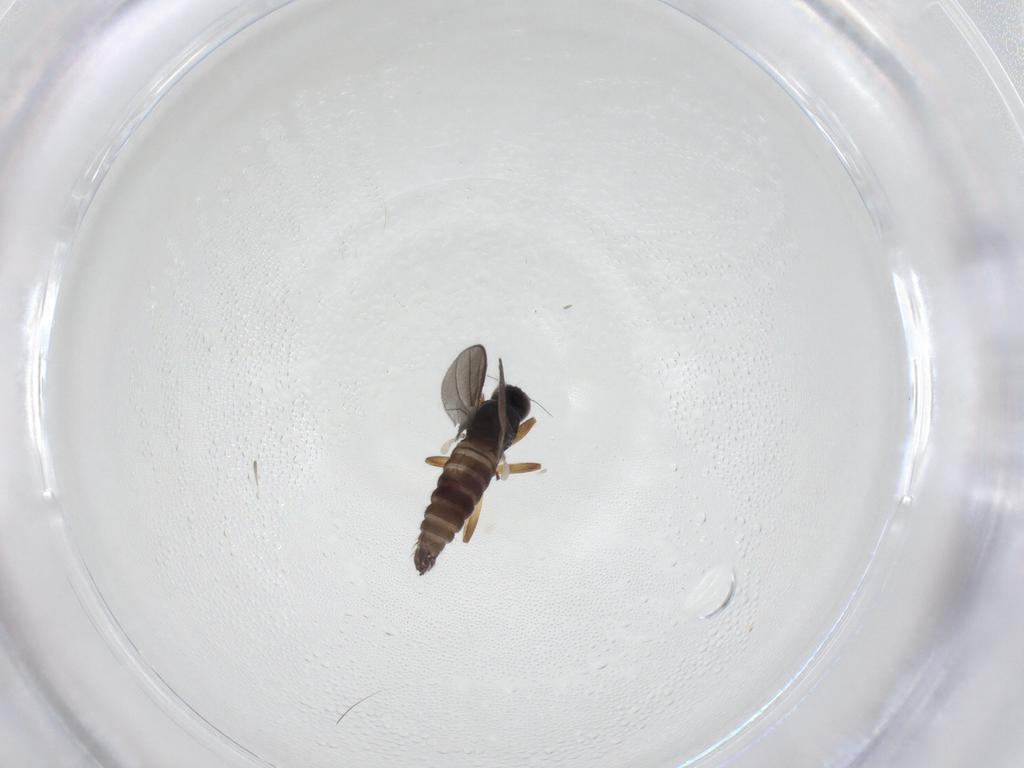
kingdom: Animalia
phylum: Arthropoda
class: Insecta
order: Diptera
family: Hybotidae
